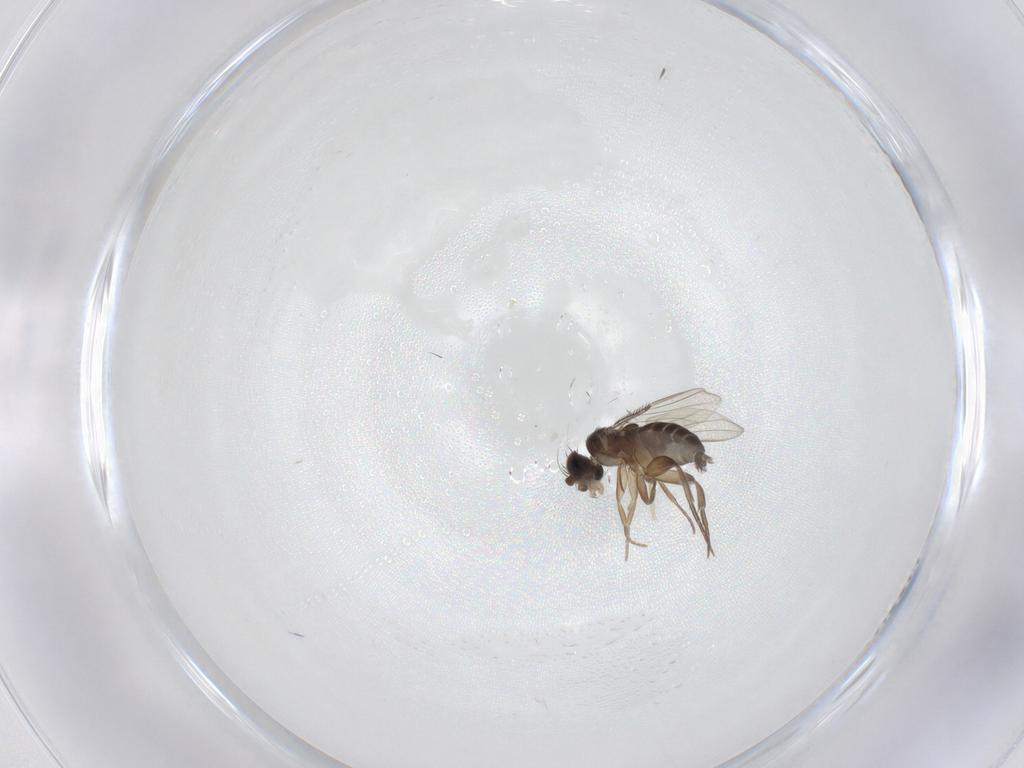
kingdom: Animalia
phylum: Arthropoda
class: Insecta
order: Diptera
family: Phoridae
